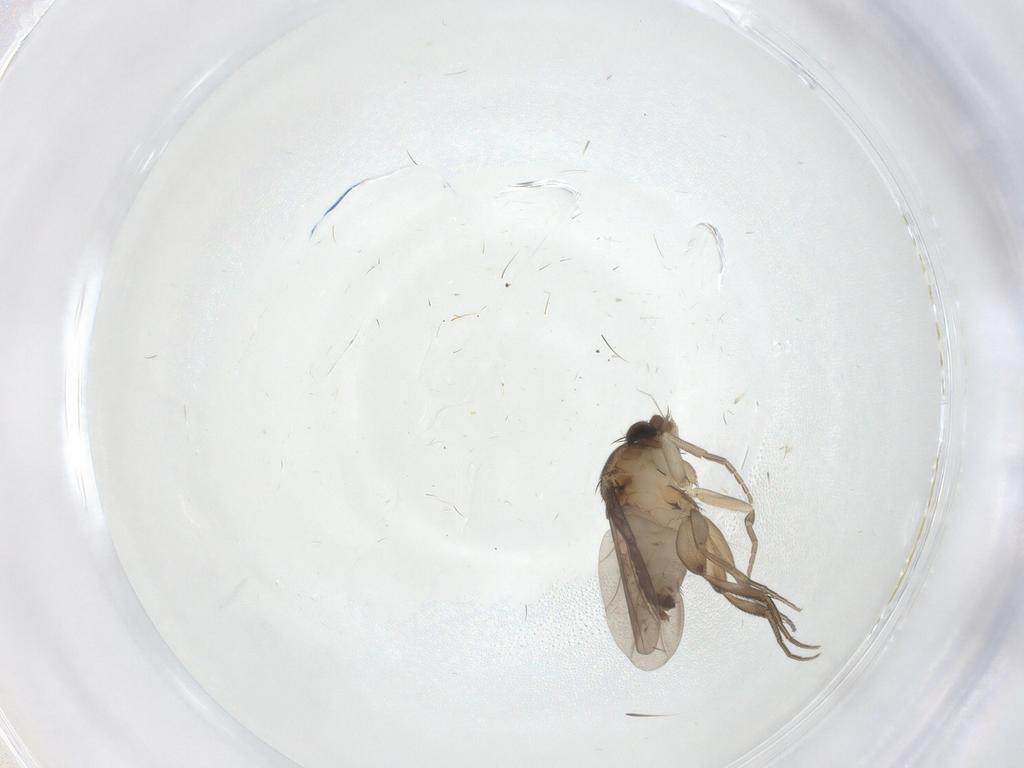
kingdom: Animalia
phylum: Arthropoda
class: Insecta
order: Diptera
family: Phoridae
